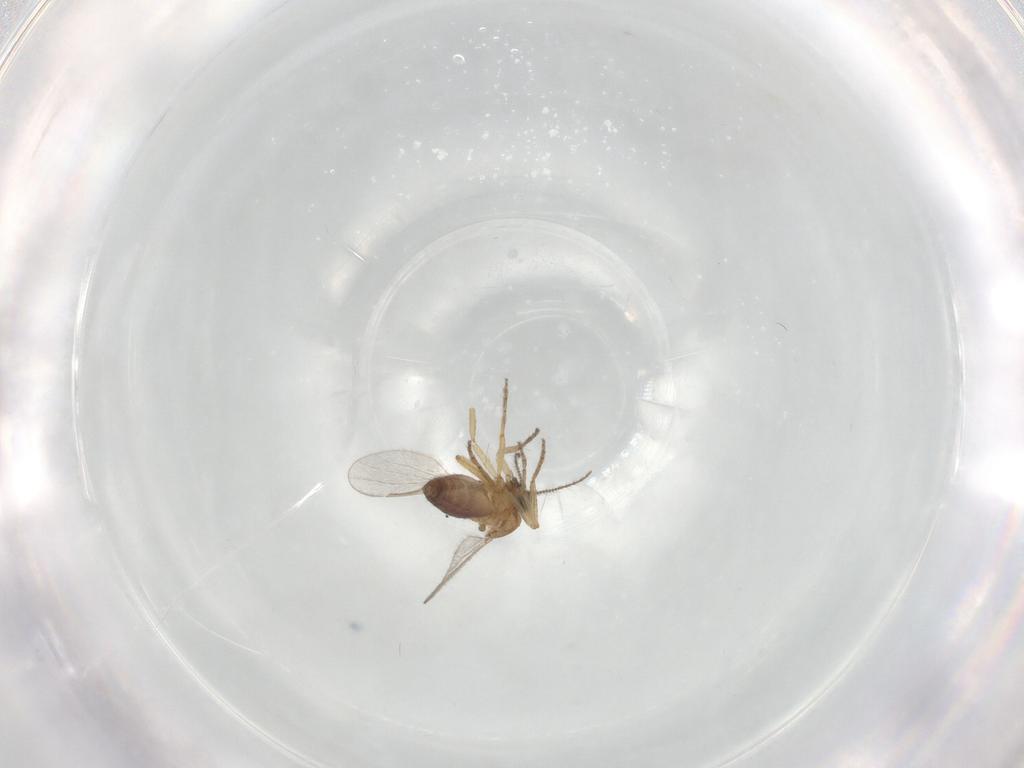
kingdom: Animalia
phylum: Arthropoda
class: Insecta
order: Diptera
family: Ceratopogonidae
